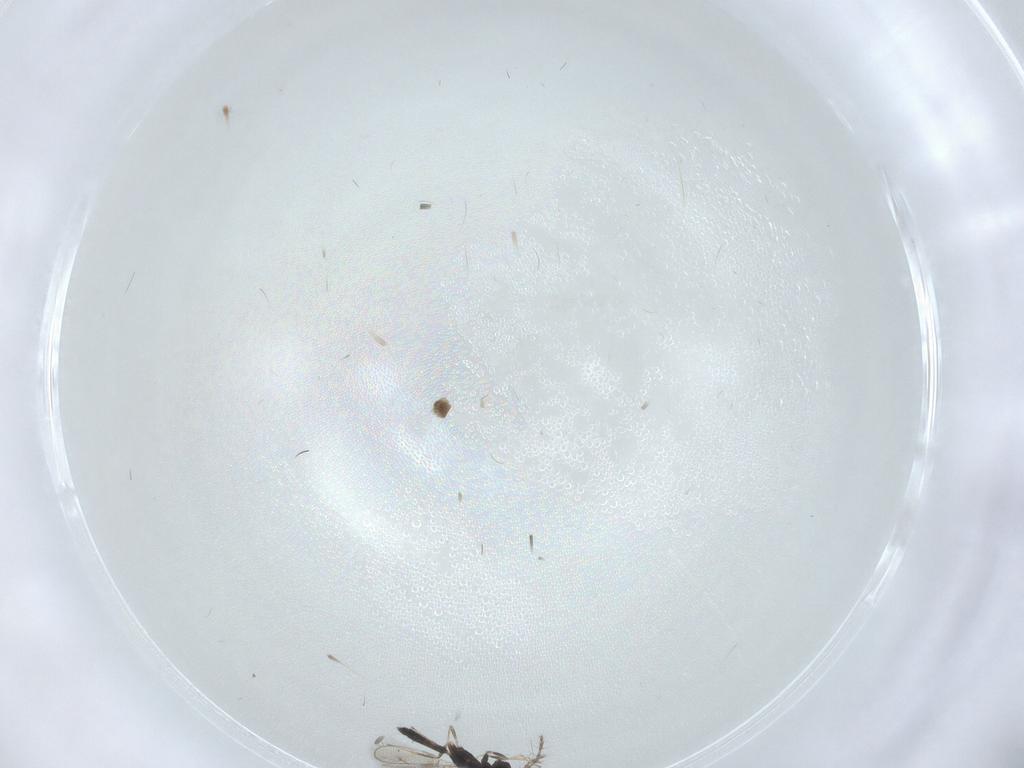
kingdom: Animalia
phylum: Arthropoda
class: Insecta
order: Hymenoptera
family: Pteromalidae
